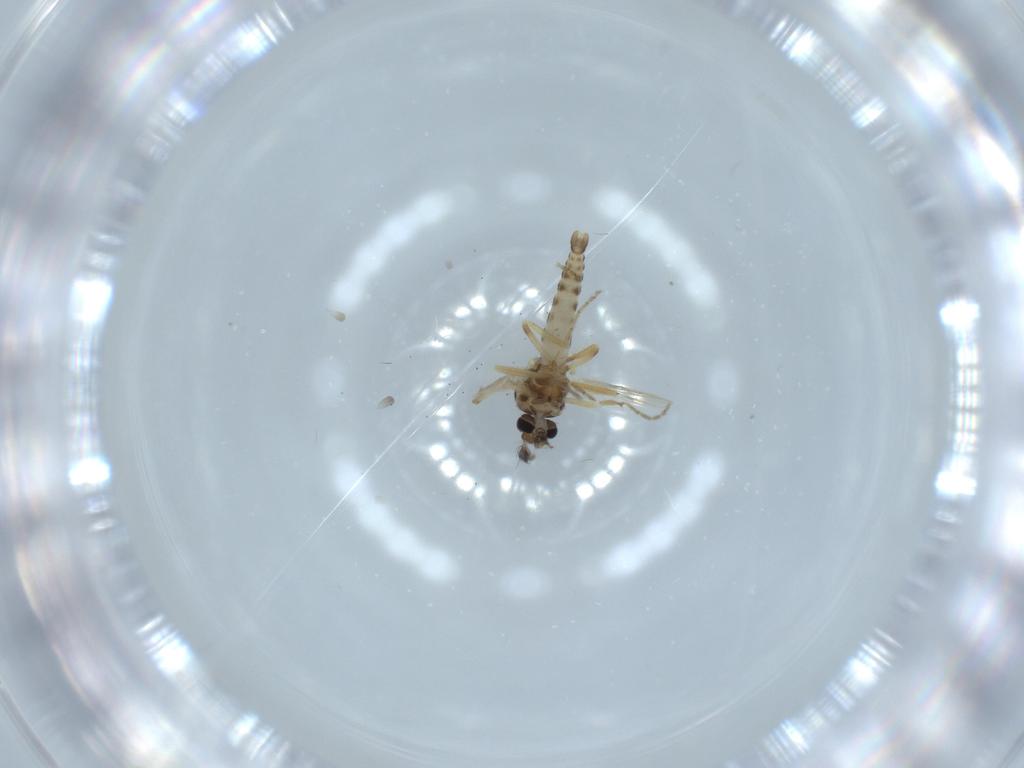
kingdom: Animalia
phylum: Arthropoda
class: Insecta
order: Diptera
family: Ceratopogonidae
